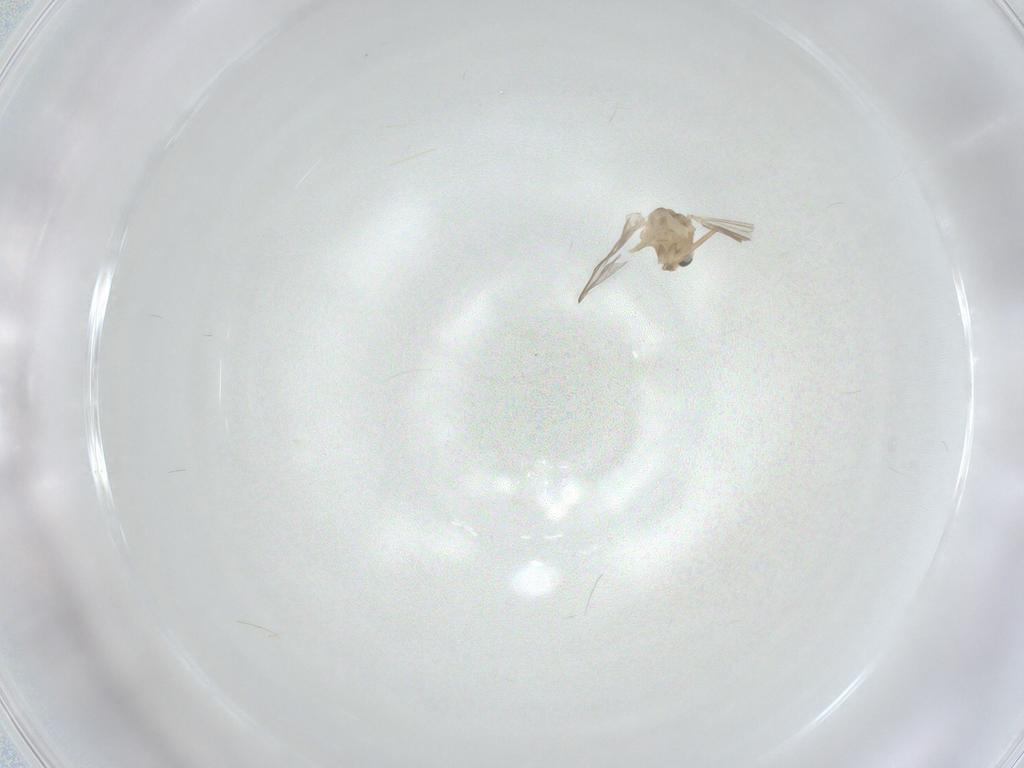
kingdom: Animalia
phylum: Arthropoda
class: Insecta
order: Diptera
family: Chironomidae
